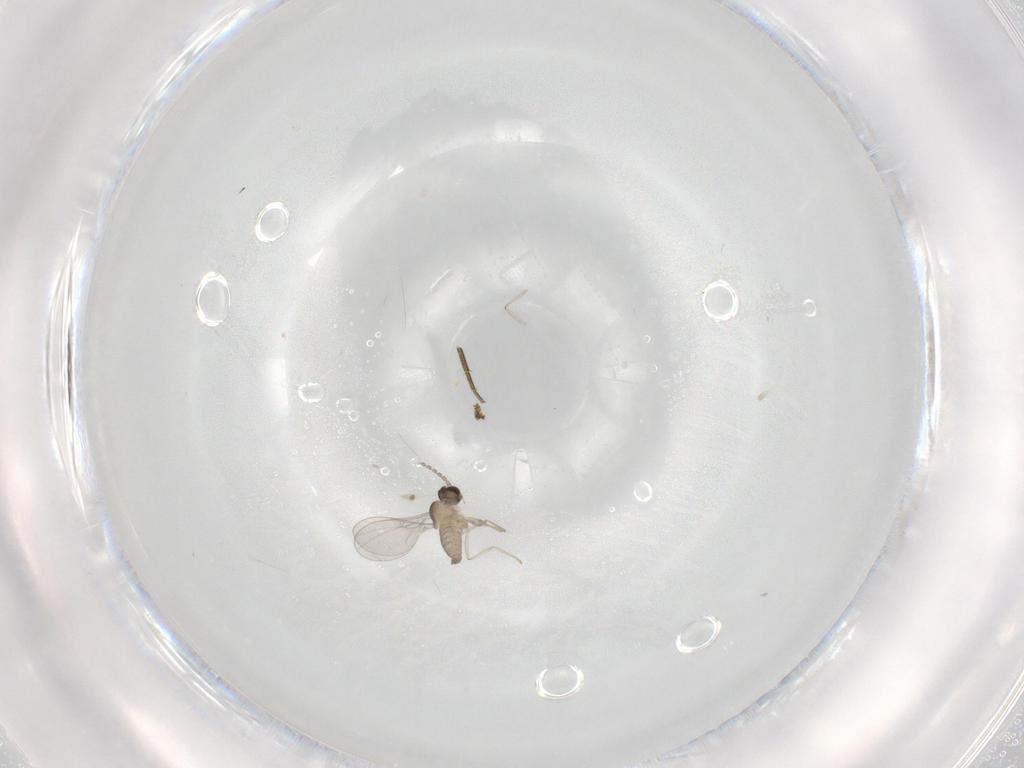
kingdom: Animalia
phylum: Arthropoda
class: Insecta
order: Diptera
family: Cecidomyiidae
